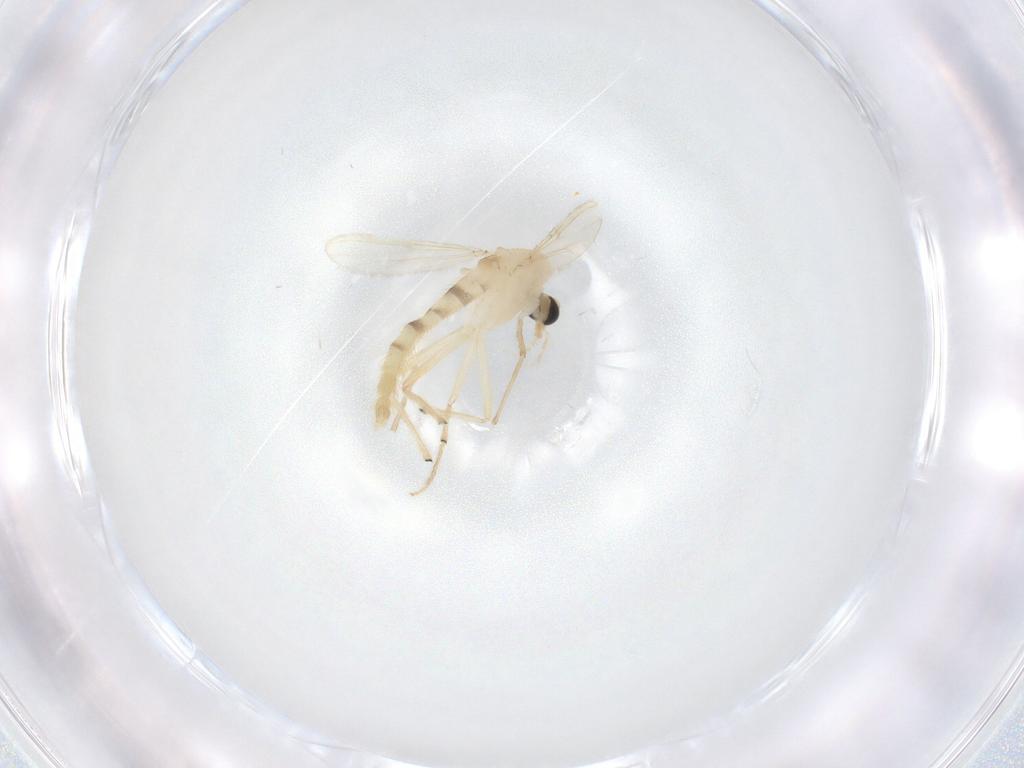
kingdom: Animalia
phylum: Arthropoda
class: Insecta
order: Diptera
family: Chironomidae
